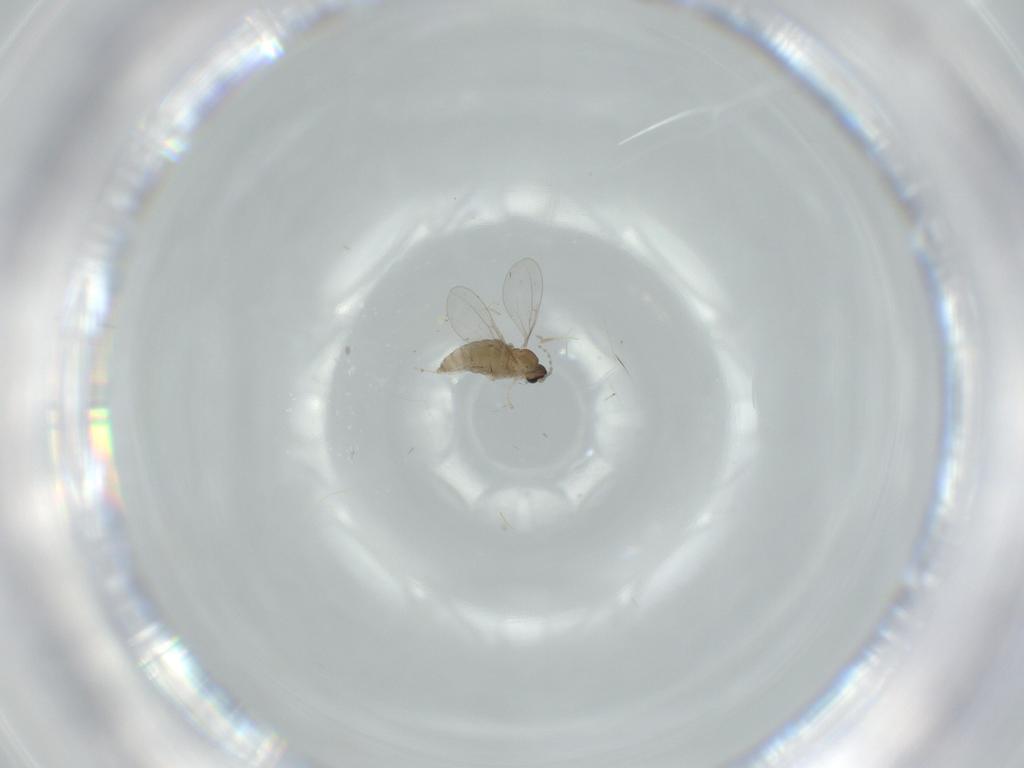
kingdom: Animalia
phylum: Arthropoda
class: Insecta
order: Diptera
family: Cecidomyiidae
